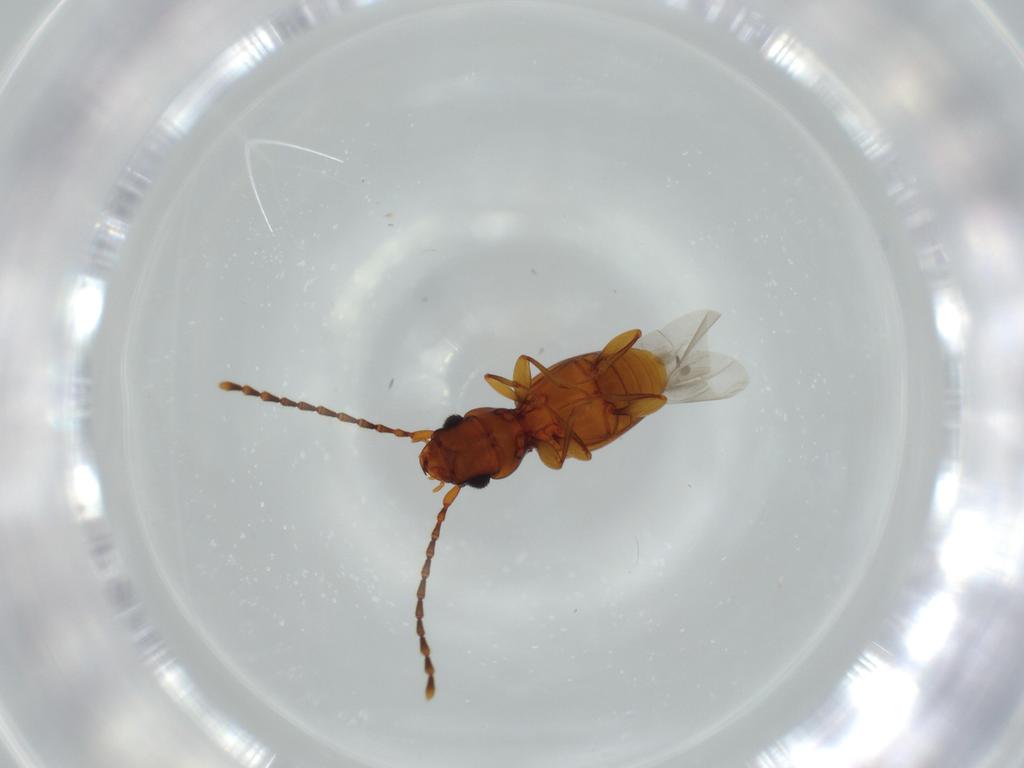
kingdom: Animalia
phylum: Arthropoda
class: Insecta
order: Coleoptera
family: Laemophloeidae
